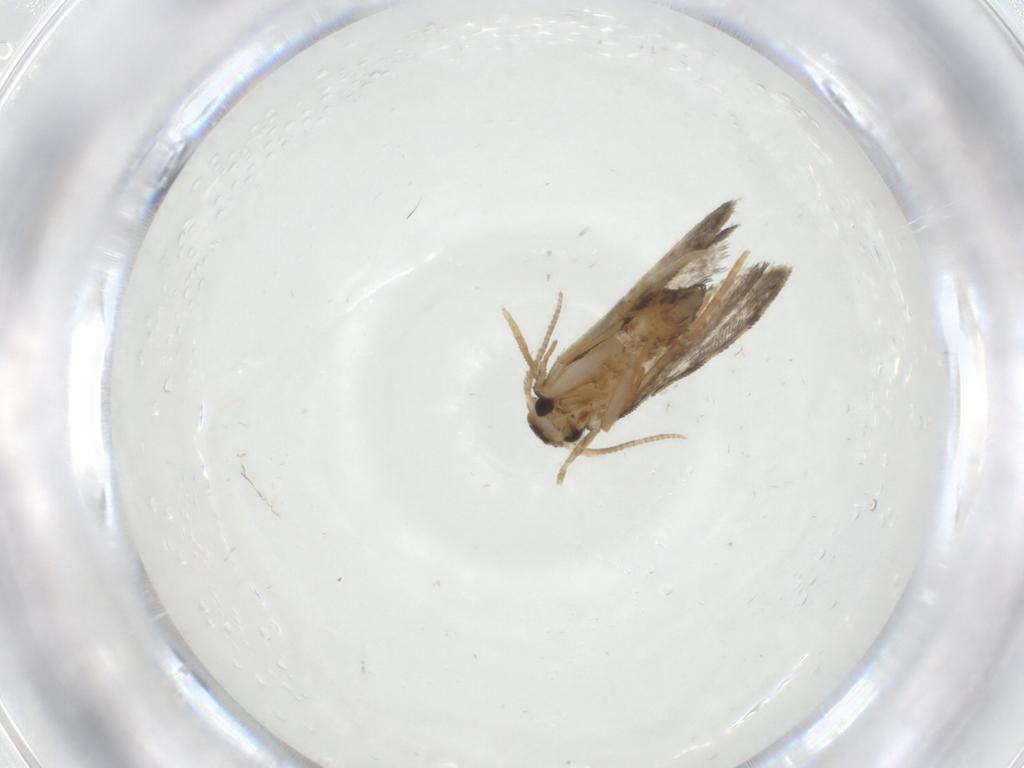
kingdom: Animalia
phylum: Arthropoda
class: Insecta
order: Lepidoptera
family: Psychidae
